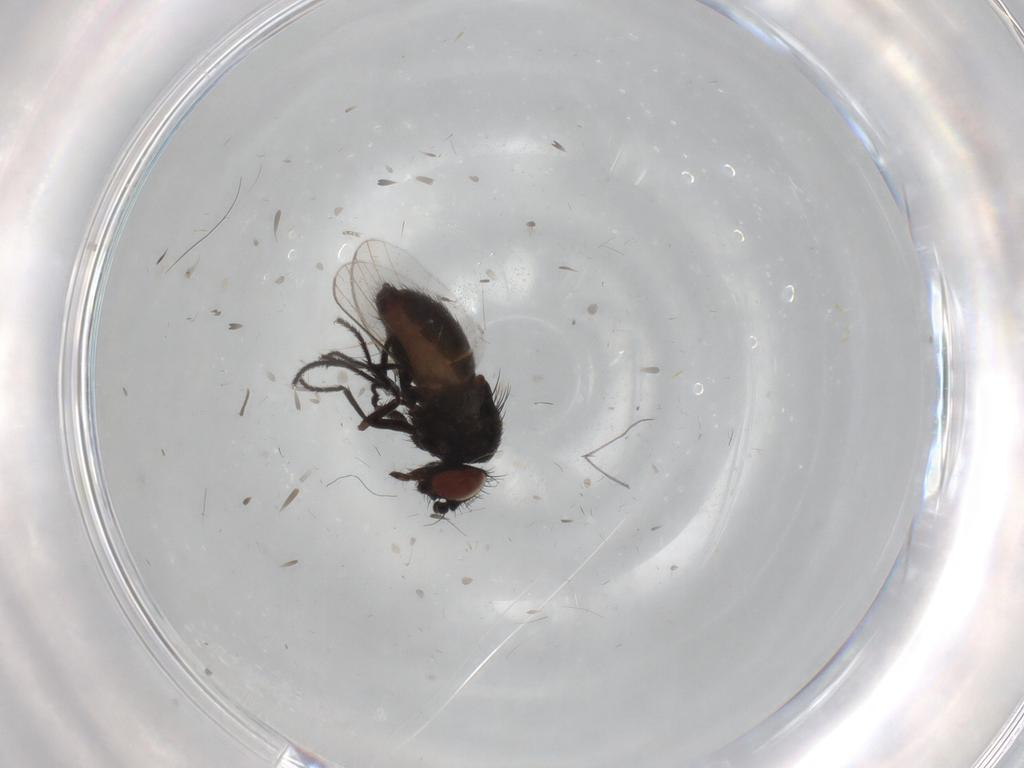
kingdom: Animalia
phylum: Arthropoda
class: Insecta
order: Diptera
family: Milichiidae
